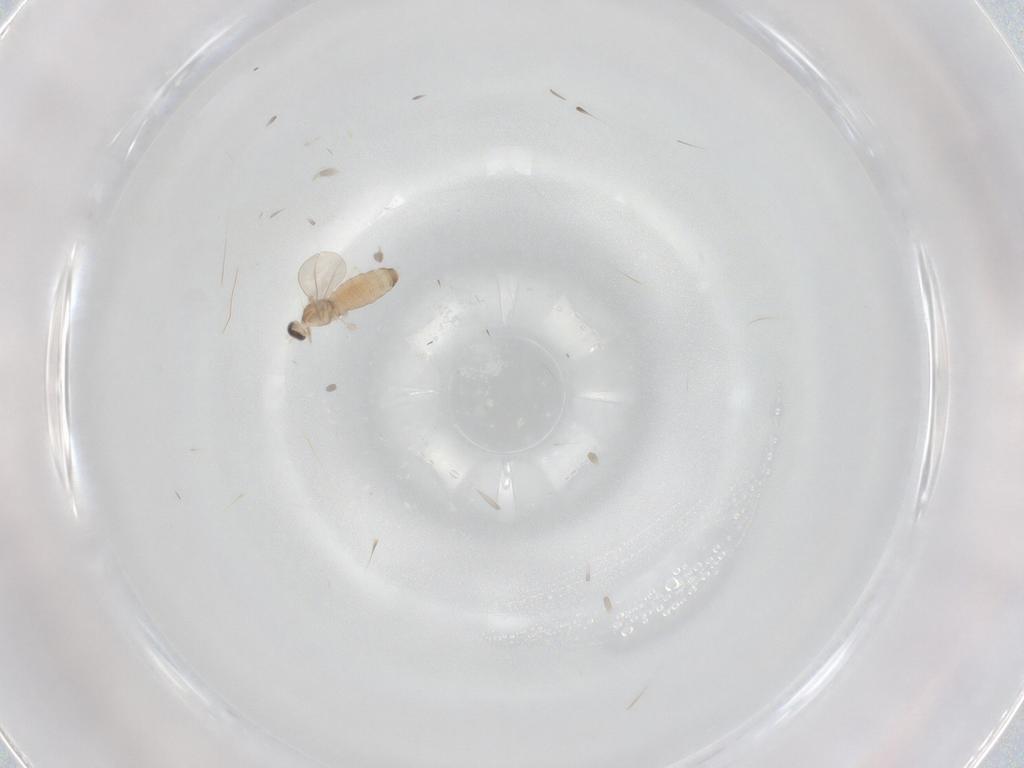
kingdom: Animalia
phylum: Arthropoda
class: Insecta
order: Diptera
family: Cecidomyiidae
